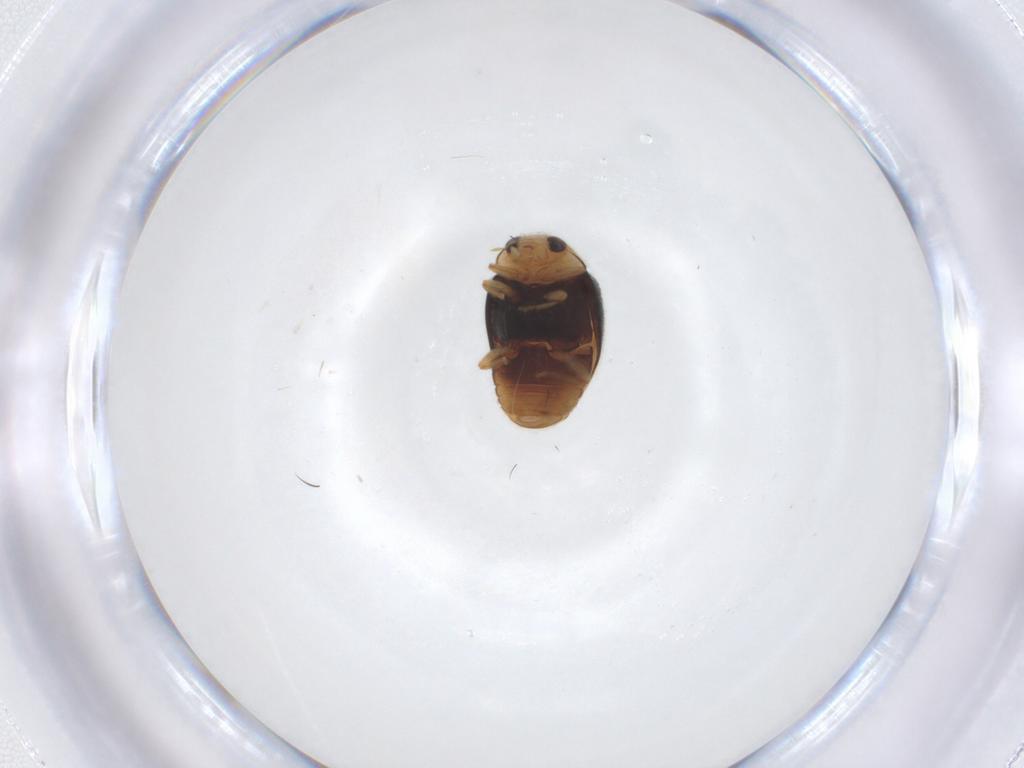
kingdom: Animalia
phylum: Arthropoda
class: Insecta
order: Coleoptera
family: Coccinellidae
